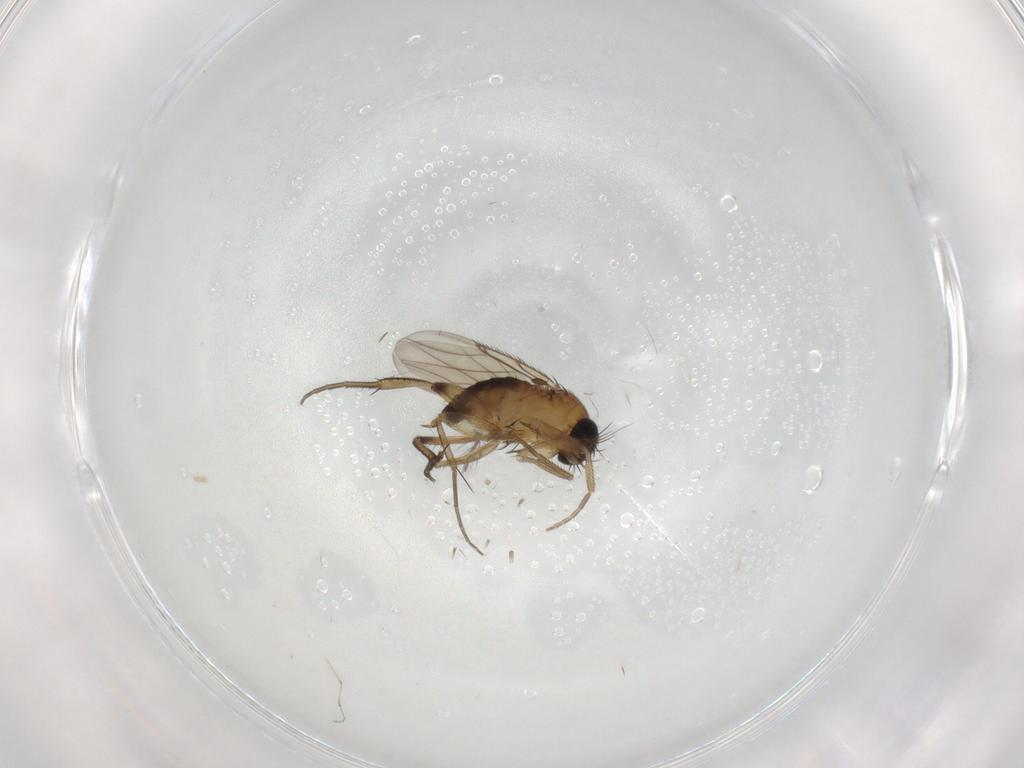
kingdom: Animalia
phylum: Arthropoda
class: Insecta
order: Diptera
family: Phoridae
